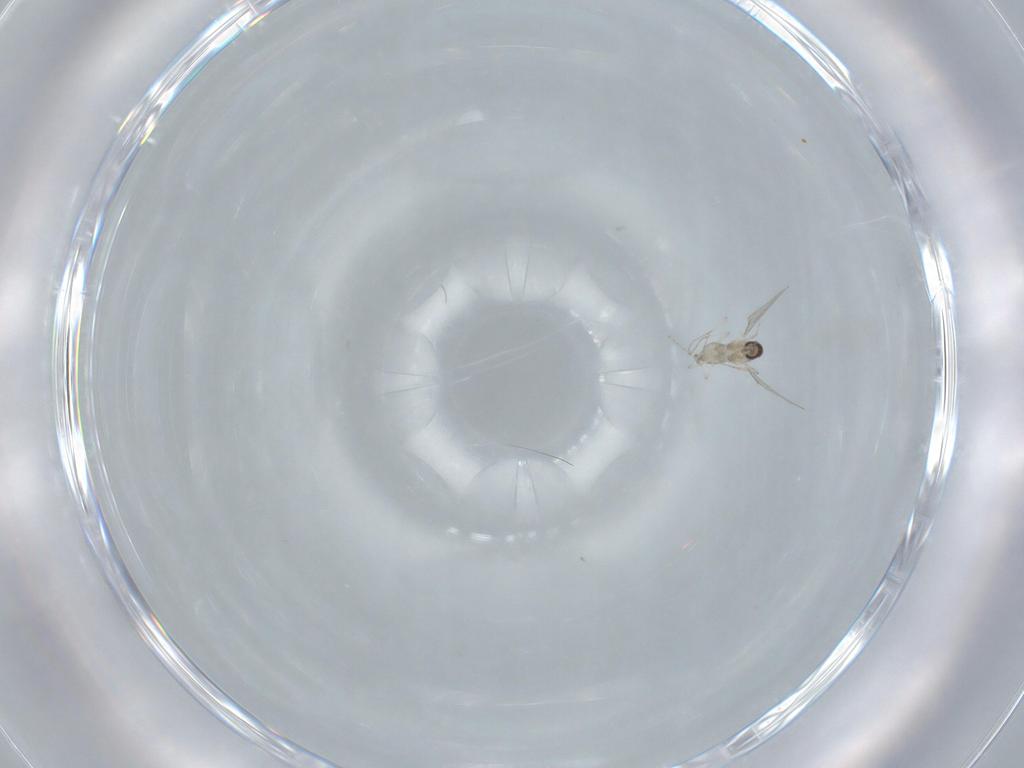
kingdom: Animalia
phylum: Arthropoda
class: Insecta
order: Diptera
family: Cecidomyiidae
